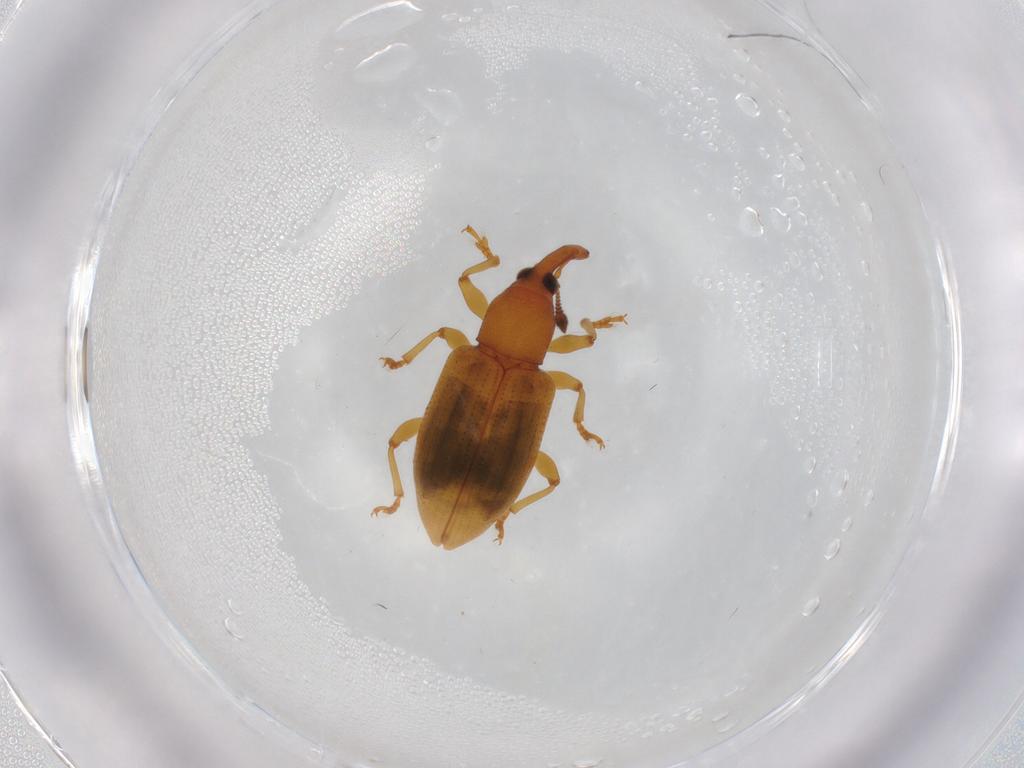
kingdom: Animalia
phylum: Arthropoda
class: Insecta
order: Coleoptera
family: Curculionidae
